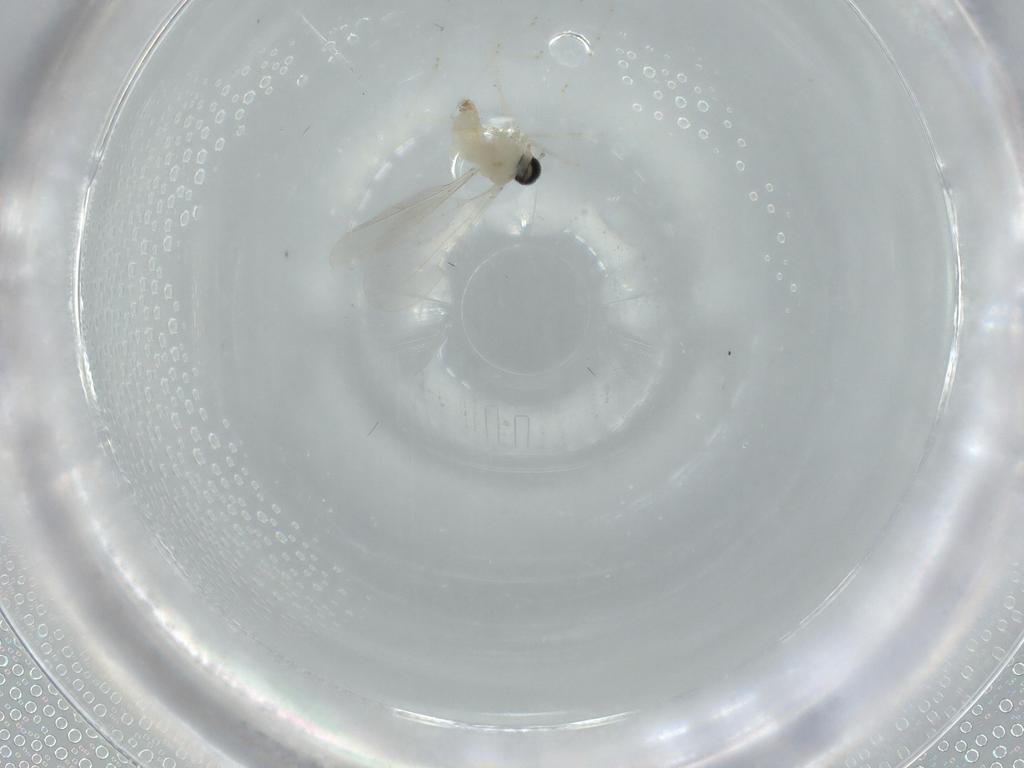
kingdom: Animalia
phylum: Arthropoda
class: Insecta
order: Diptera
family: Cecidomyiidae
